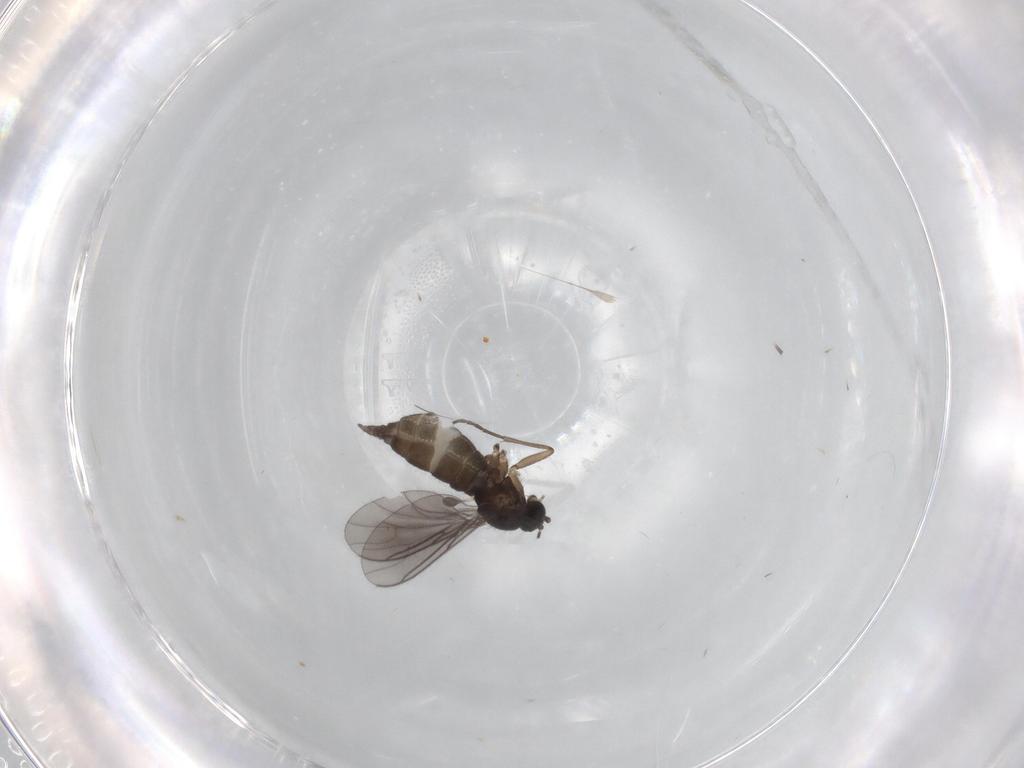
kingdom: Animalia
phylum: Arthropoda
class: Insecta
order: Diptera
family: Sciaridae
